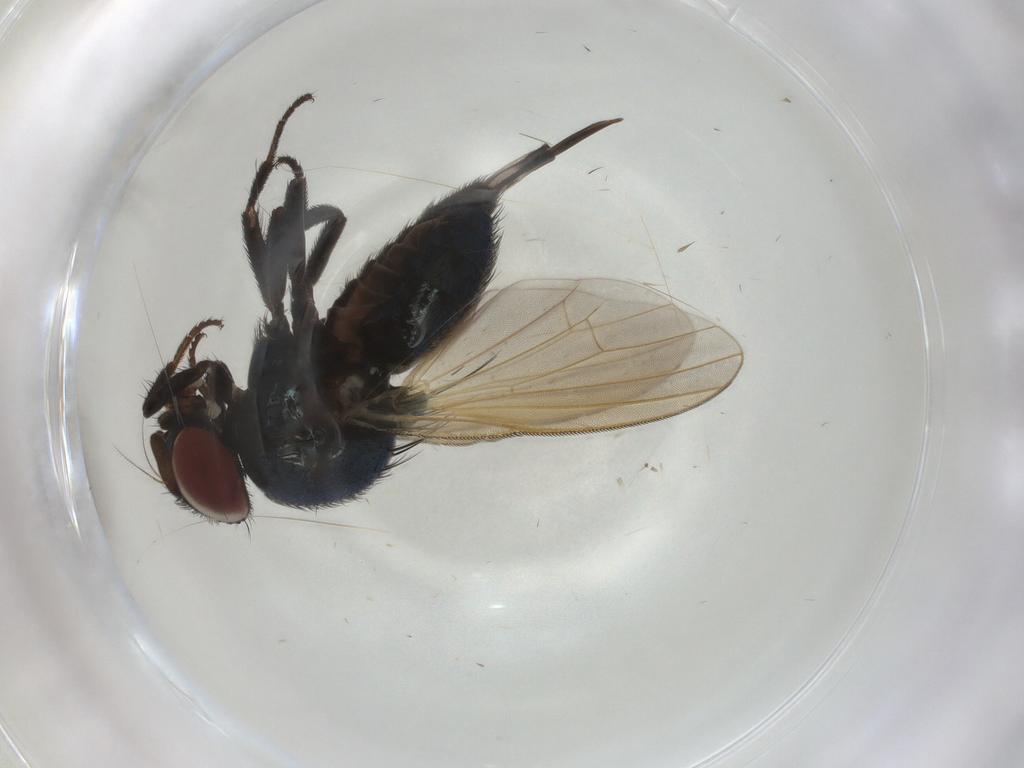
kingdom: Animalia
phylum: Arthropoda
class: Insecta
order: Diptera
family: Lonchaeidae
